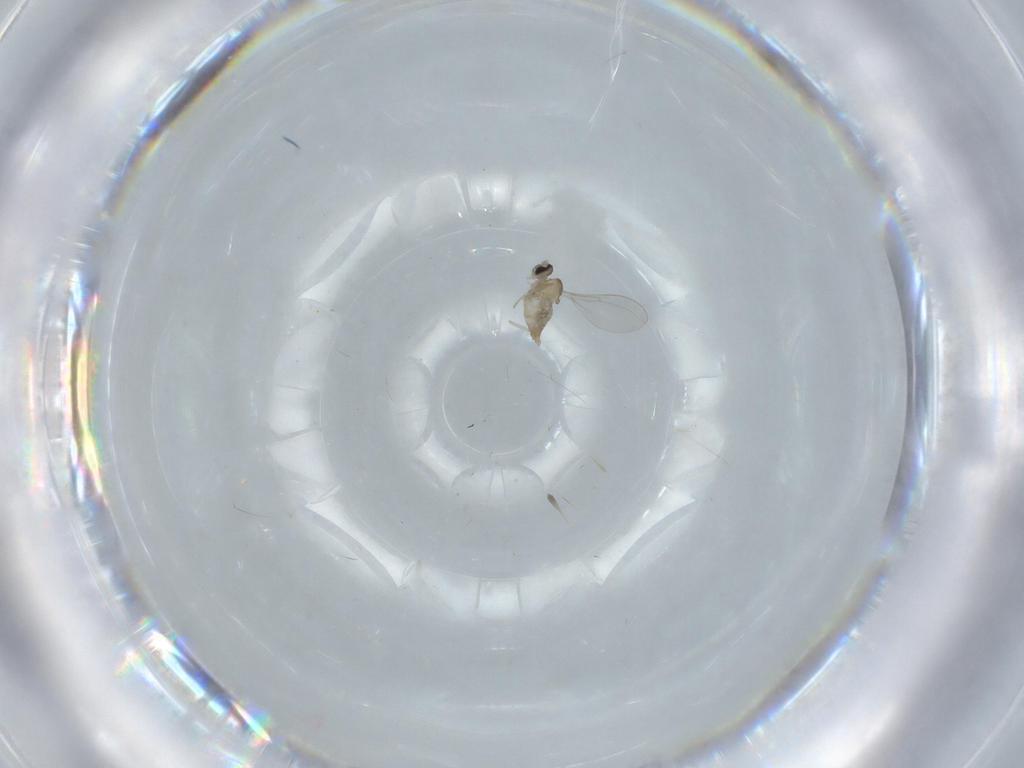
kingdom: Animalia
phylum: Arthropoda
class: Insecta
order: Diptera
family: Cecidomyiidae
